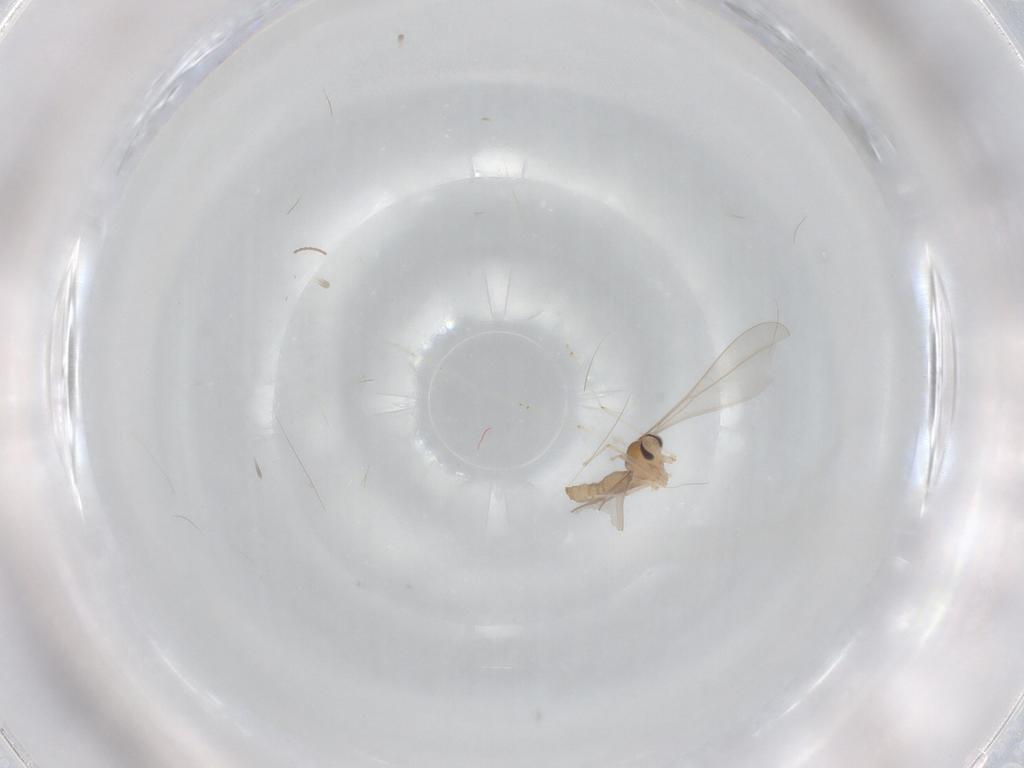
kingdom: Animalia
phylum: Arthropoda
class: Insecta
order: Diptera
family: Cecidomyiidae
